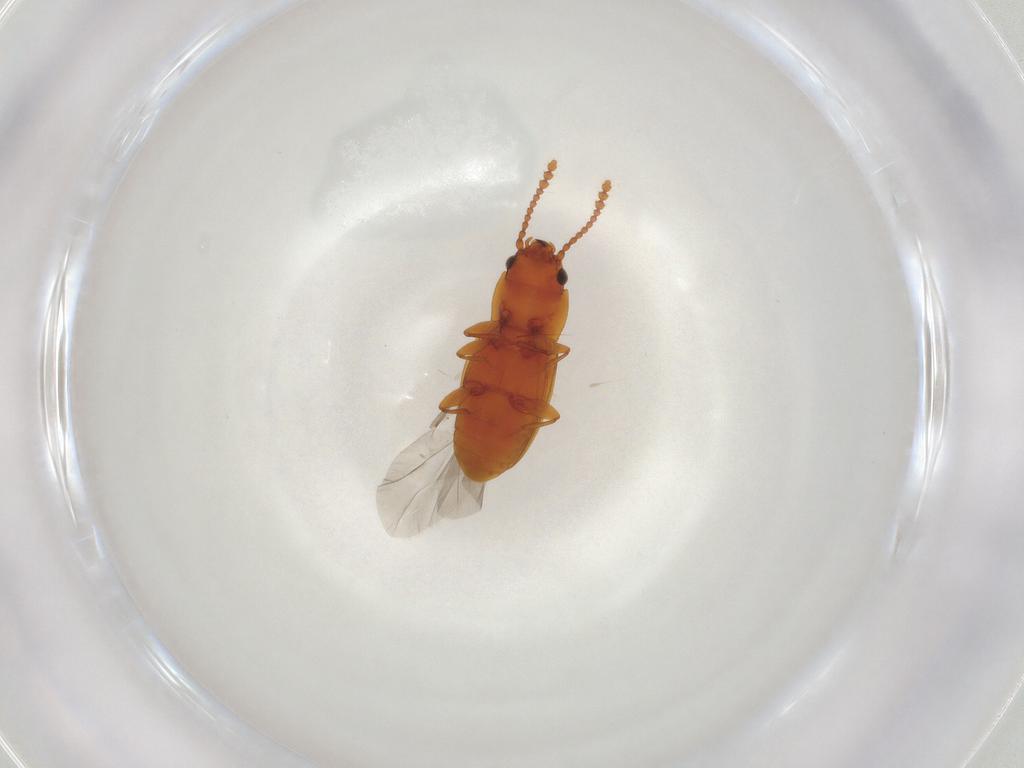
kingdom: Animalia
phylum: Arthropoda
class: Insecta
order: Coleoptera
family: Laemophloeidae
